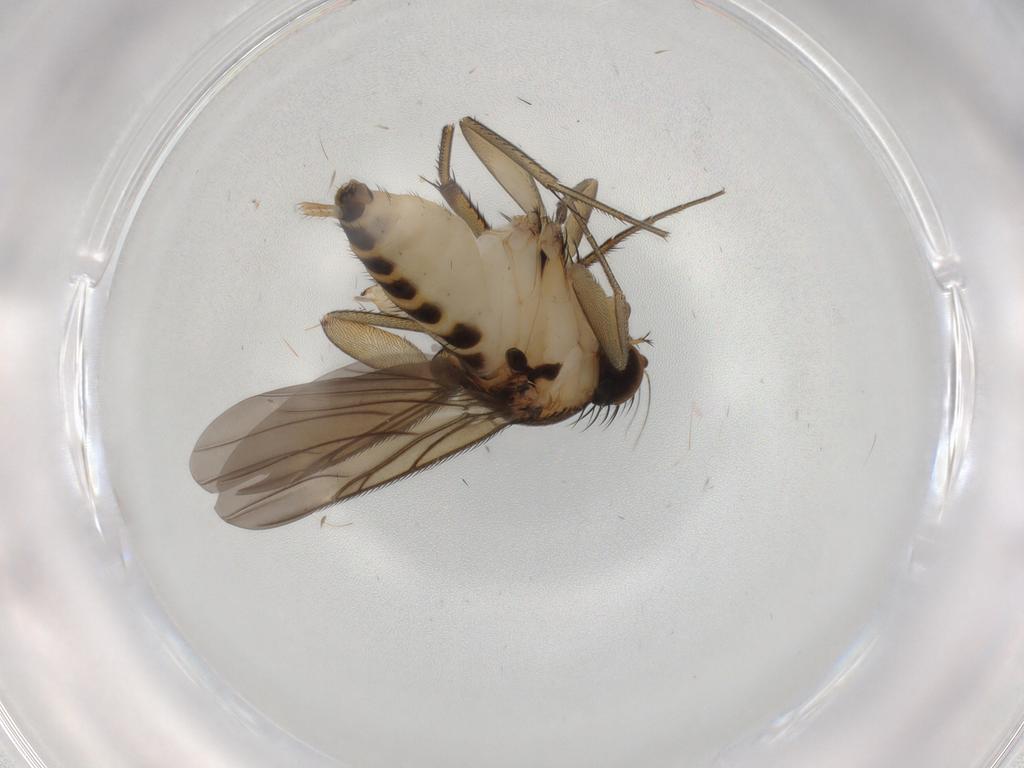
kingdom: Animalia
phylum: Arthropoda
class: Insecta
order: Diptera
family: Phoridae
